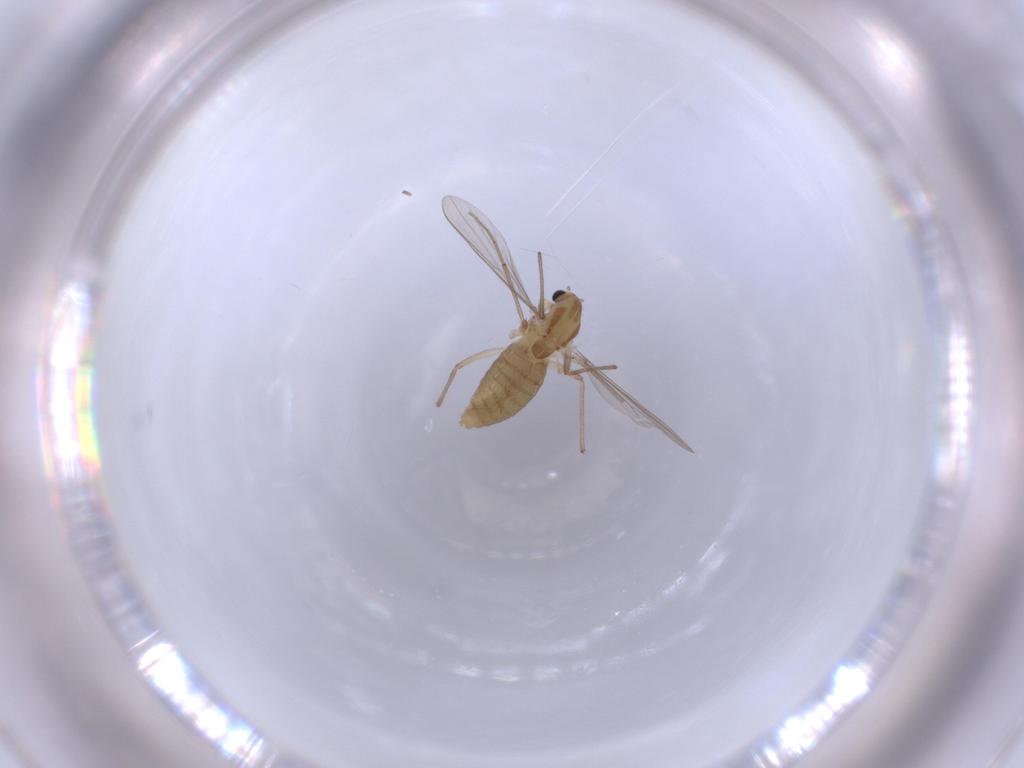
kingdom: Animalia
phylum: Arthropoda
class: Insecta
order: Diptera
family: Chironomidae
